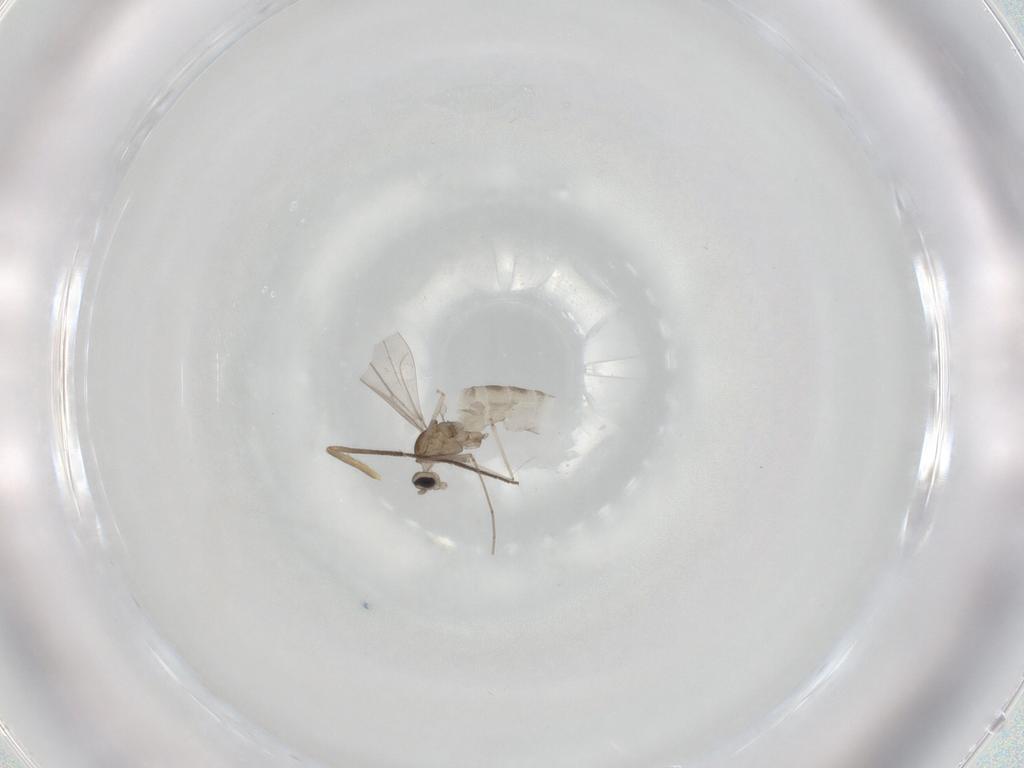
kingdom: Animalia
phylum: Arthropoda
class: Insecta
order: Diptera
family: Cecidomyiidae
